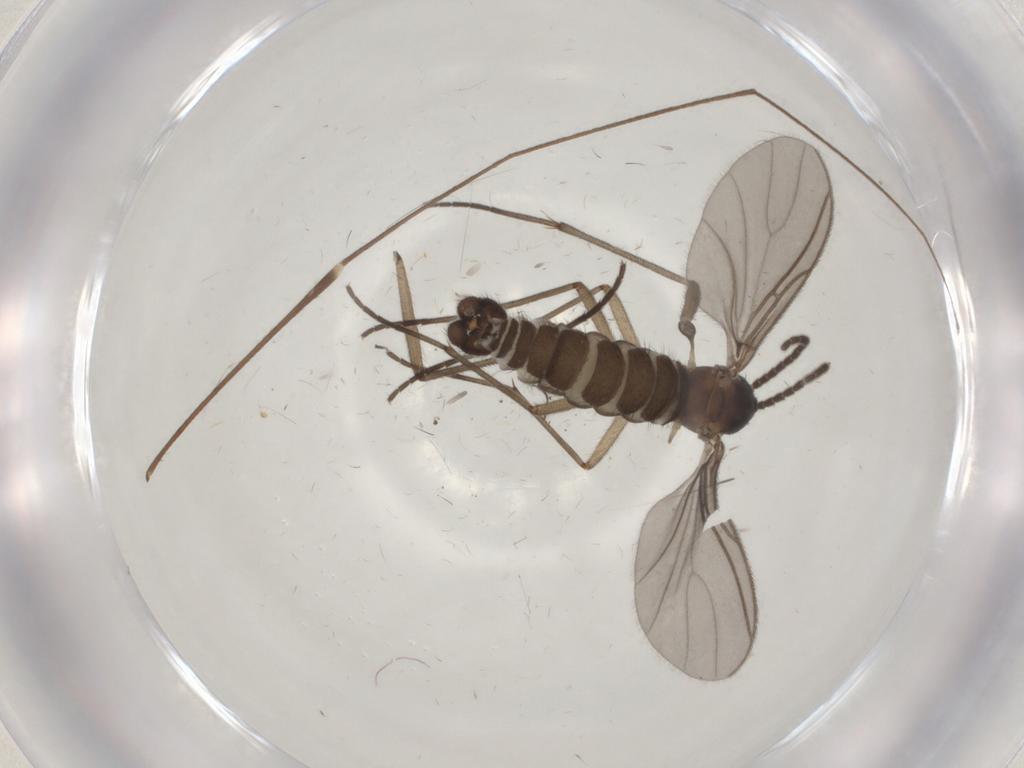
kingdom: Animalia
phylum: Arthropoda
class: Insecta
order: Diptera
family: Sciaridae
